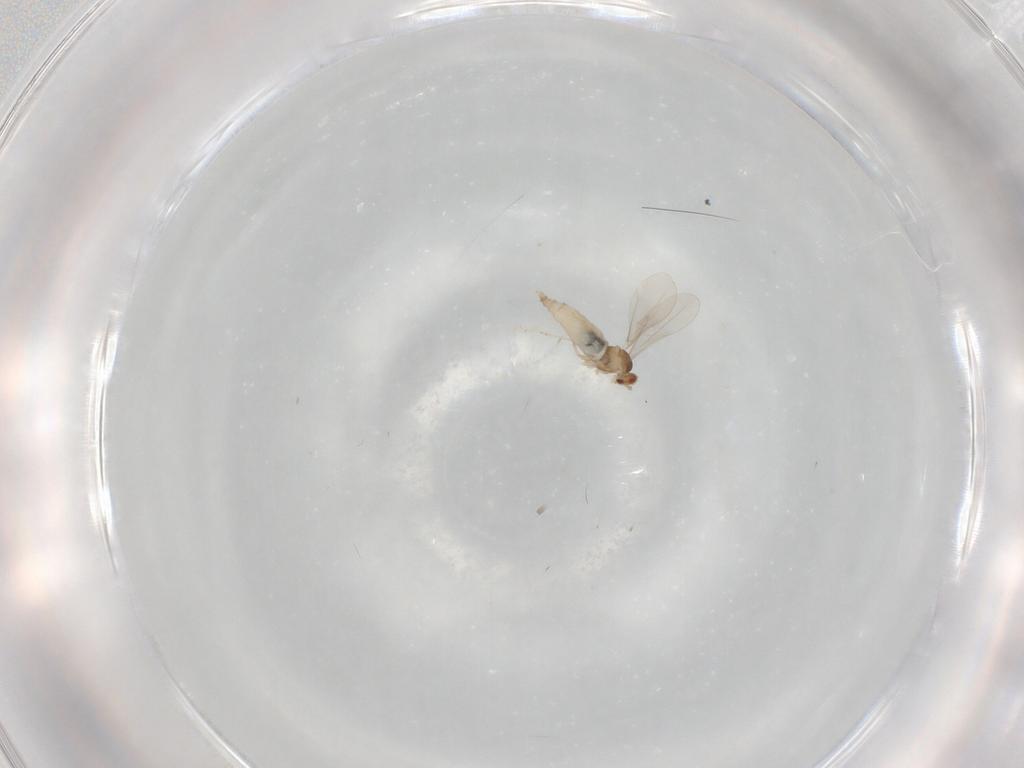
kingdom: Animalia
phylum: Arthropoda
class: Insecta
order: Diptera
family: Cecidomyiidae
